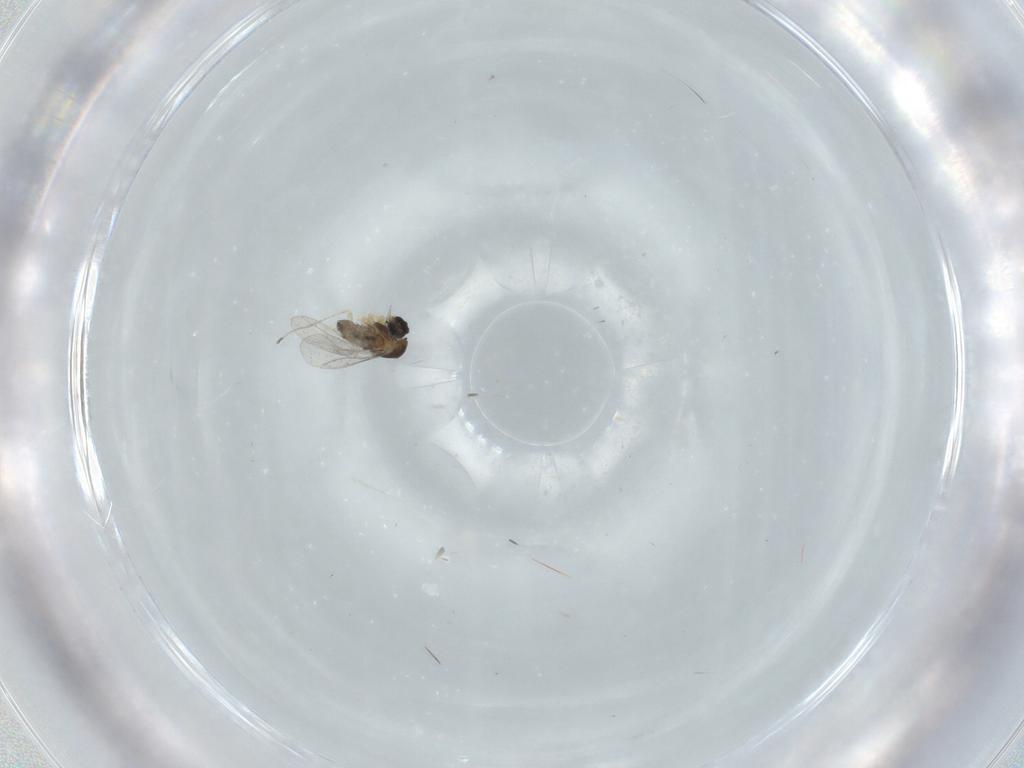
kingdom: Animalia
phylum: Arthropoda
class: Insecta
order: Diptera
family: Cecidomyiidae
